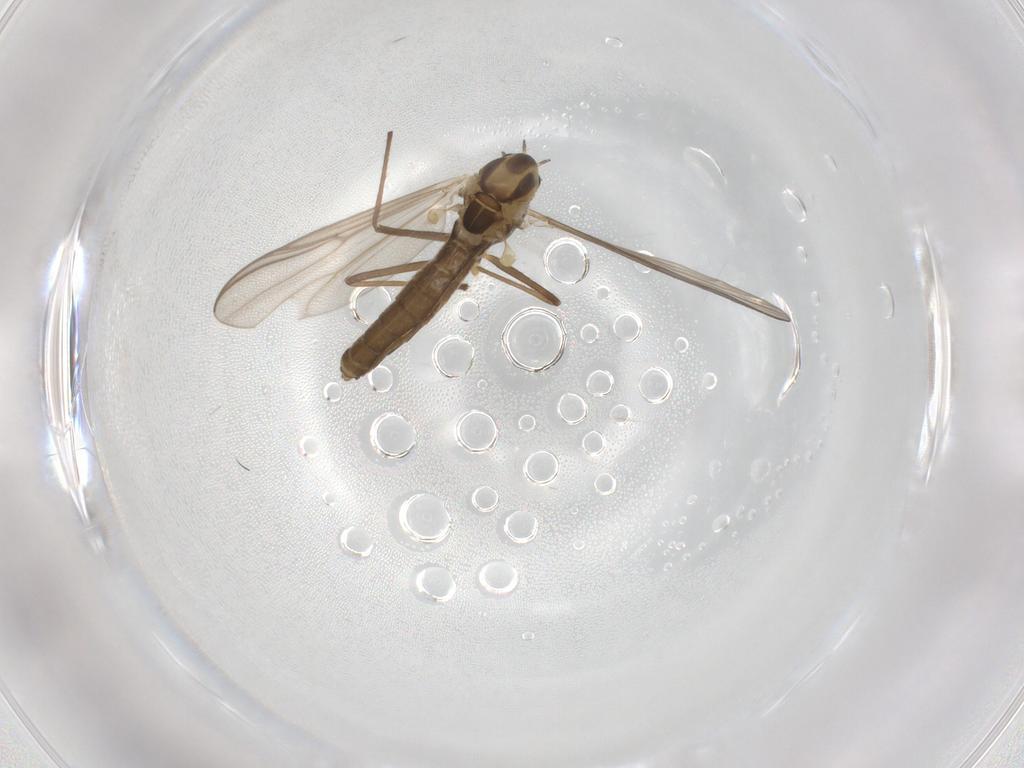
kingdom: Animalia
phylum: Arthropoda
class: Insecta
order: Diptera
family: Chironomidae
